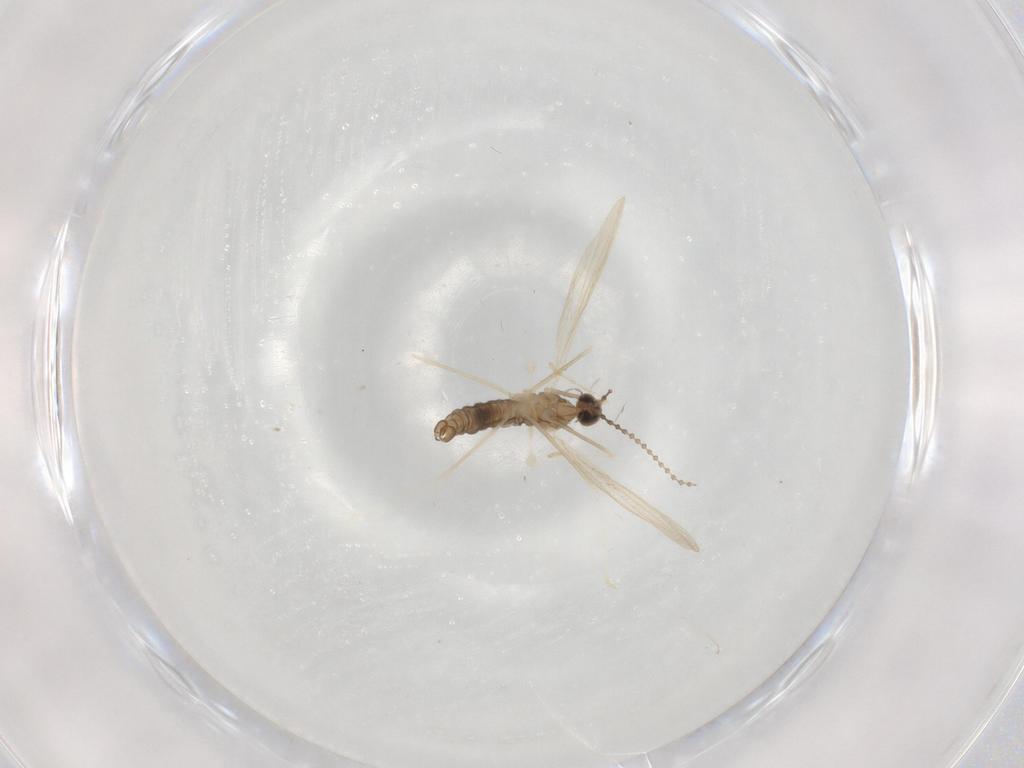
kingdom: Animalia
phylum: Arthropoda
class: Insecta
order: Diptera
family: Cecidomyiidae
